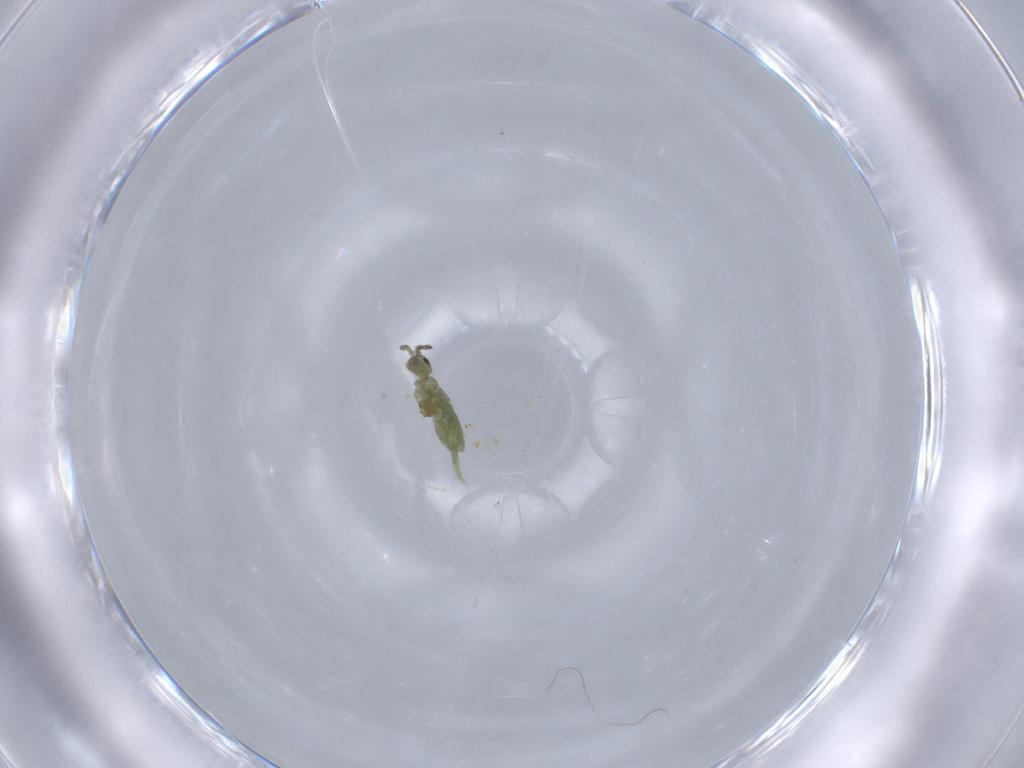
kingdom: Animalia
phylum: Arthropoda
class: Collembola
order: Entomobryomorpha
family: Isotomidae
